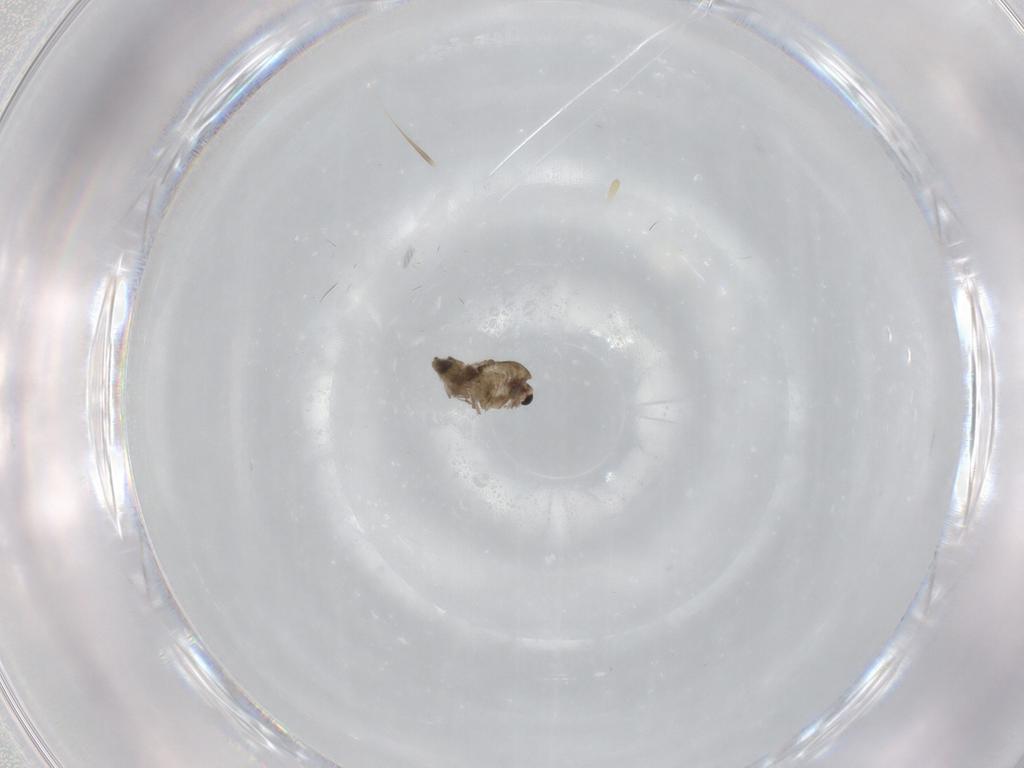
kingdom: Animalia
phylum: Arthropoda
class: Insecta
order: Diptera
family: Chironomidae
